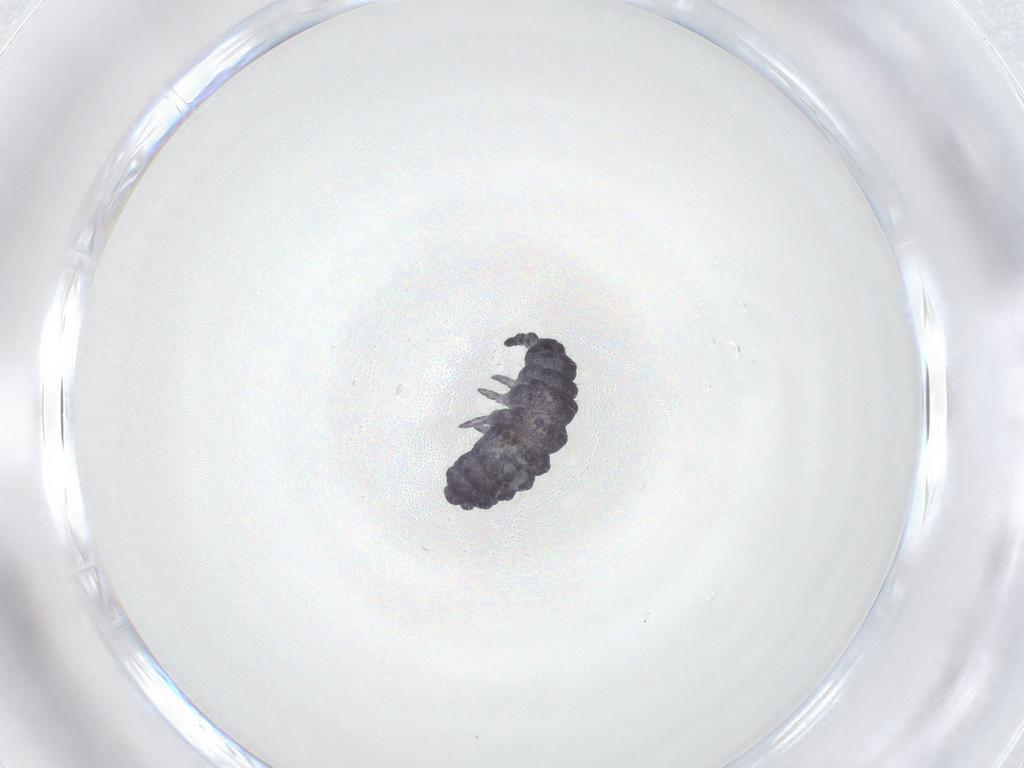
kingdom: Animalia
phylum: Arthropoda
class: Collembola
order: Poduromorpha
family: Neanuridae
